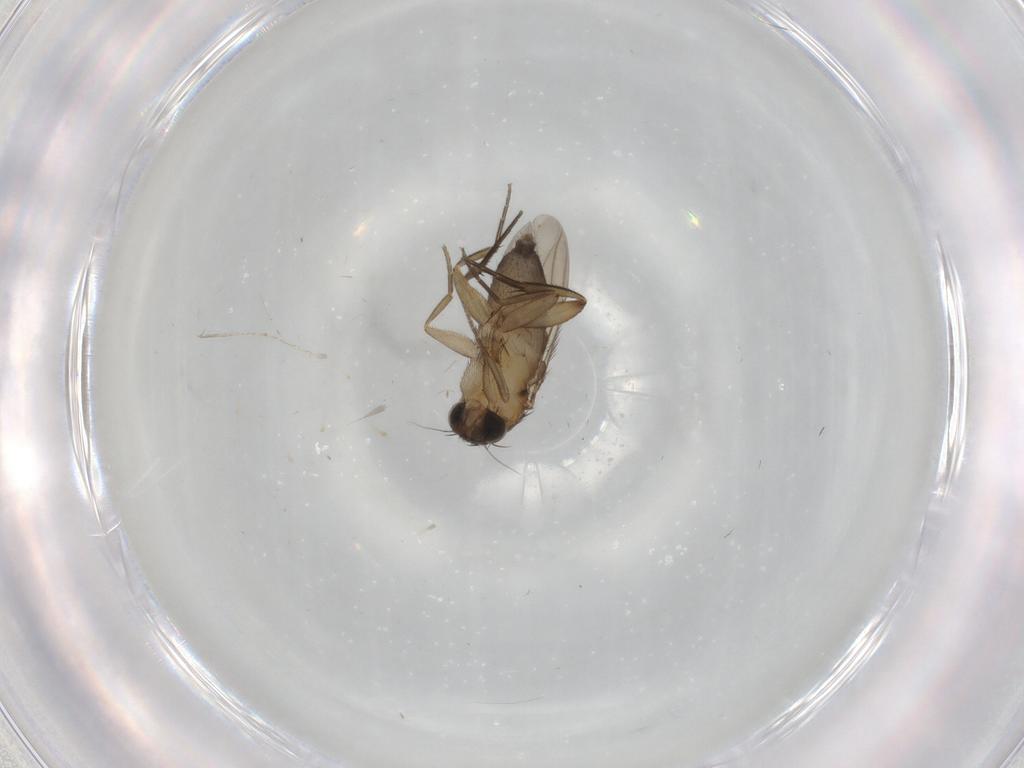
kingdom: Animalia
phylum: Arthropoda
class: Insecta
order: Diptera
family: Phoridae
